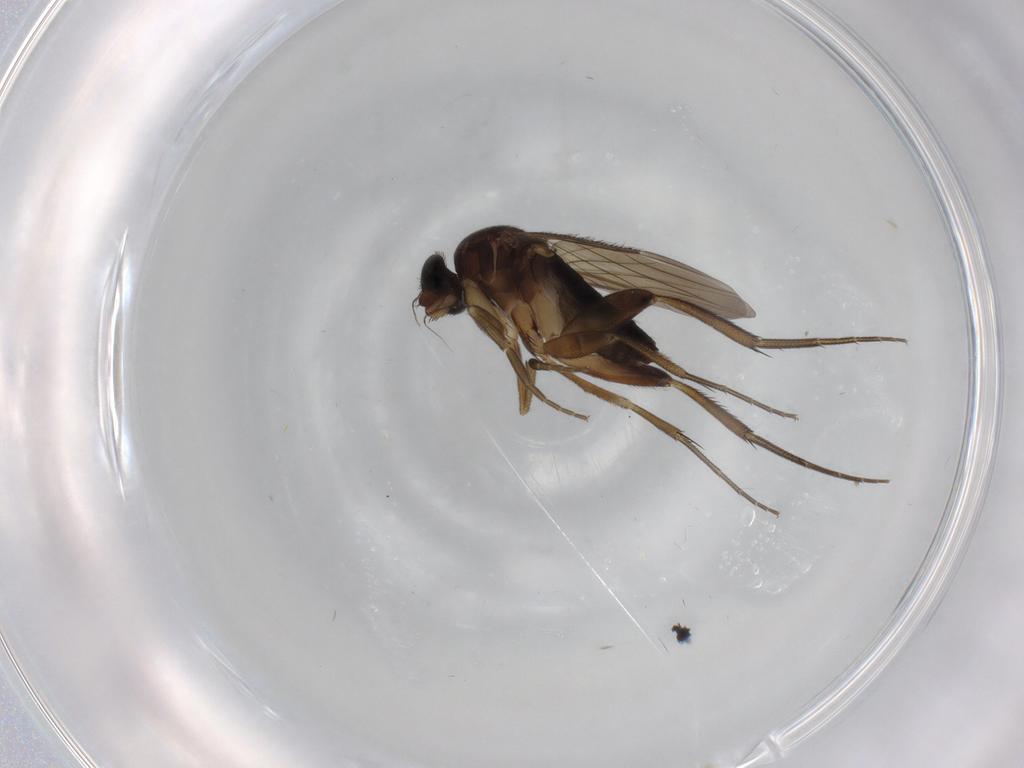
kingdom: Animalia
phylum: Arthropoda
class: Insecta
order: Diptera
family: Phoridae
